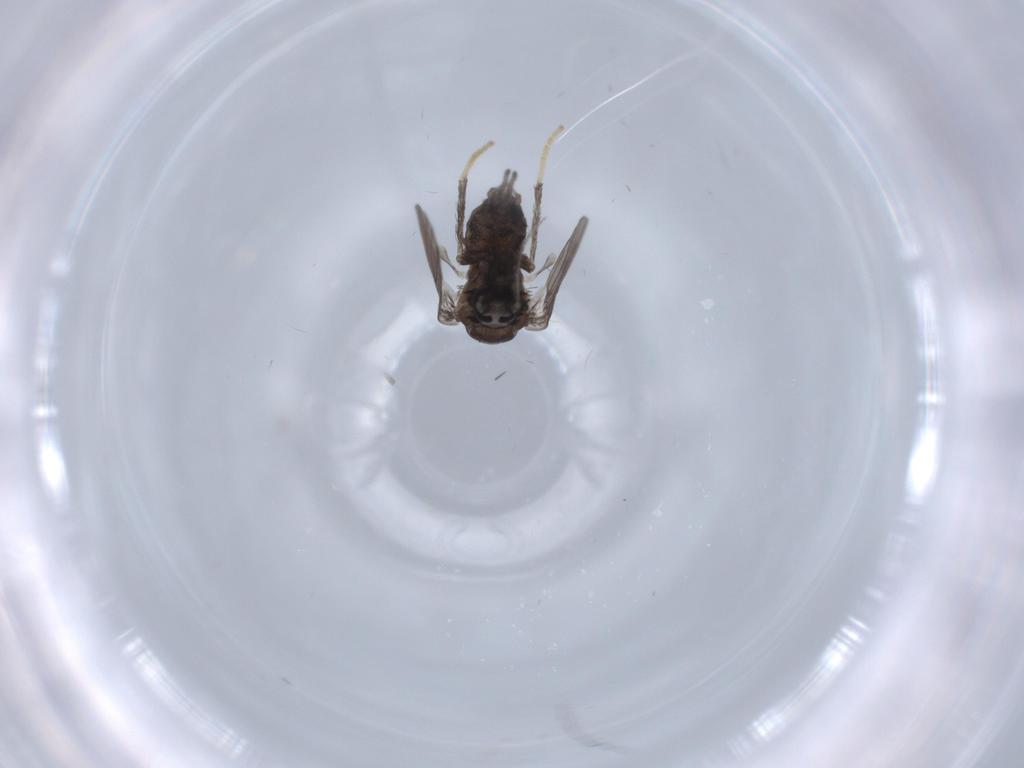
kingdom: Animalia
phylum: Arthropoda
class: Insecta
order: Diptera
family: Psychodidae
